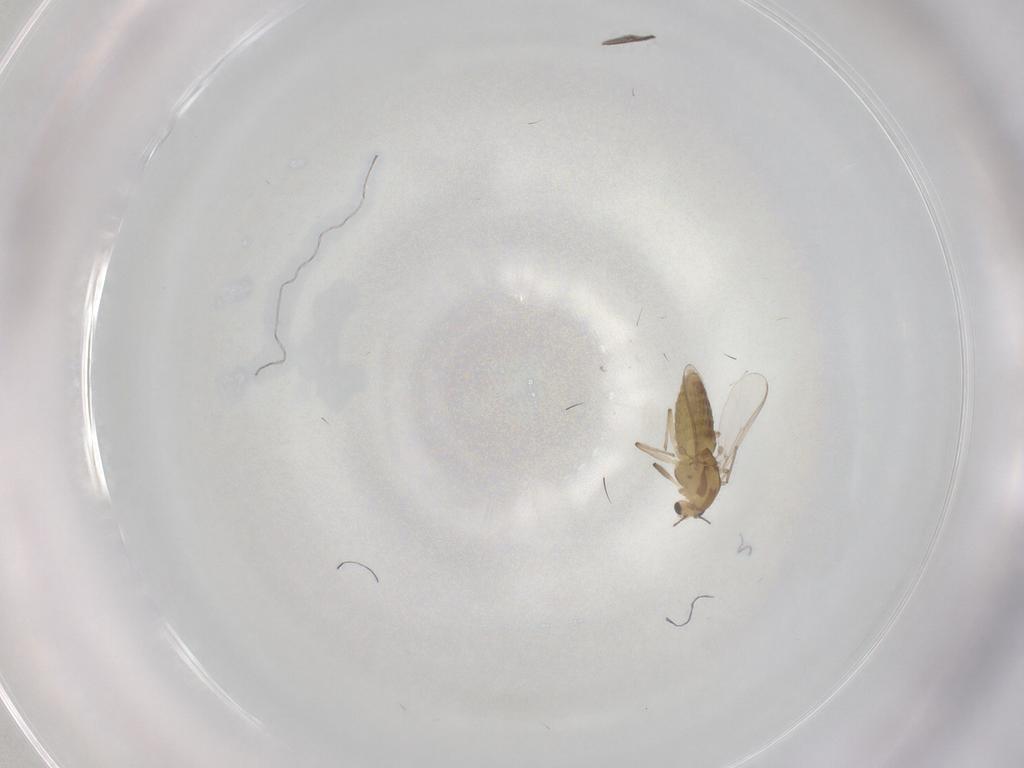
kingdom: Animalia
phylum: Arthropoda
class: Insecta
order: Diptera
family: Chironomidae
